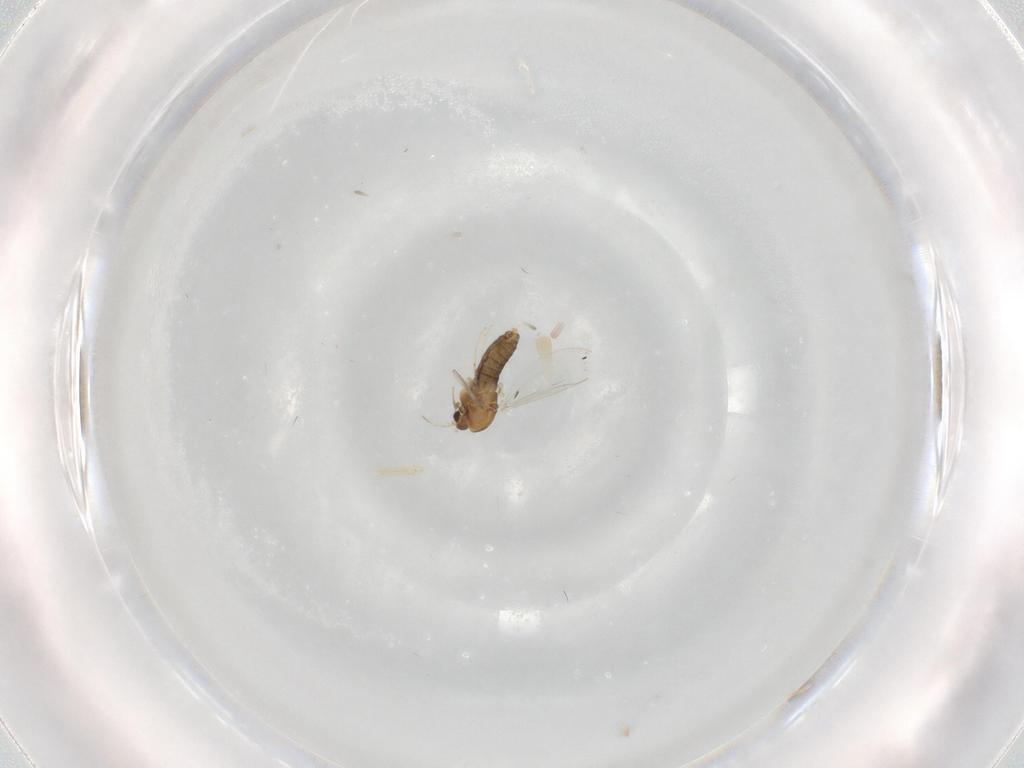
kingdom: Animalia
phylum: Arthropoda
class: Insecta
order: Diptera
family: Chironomidae
